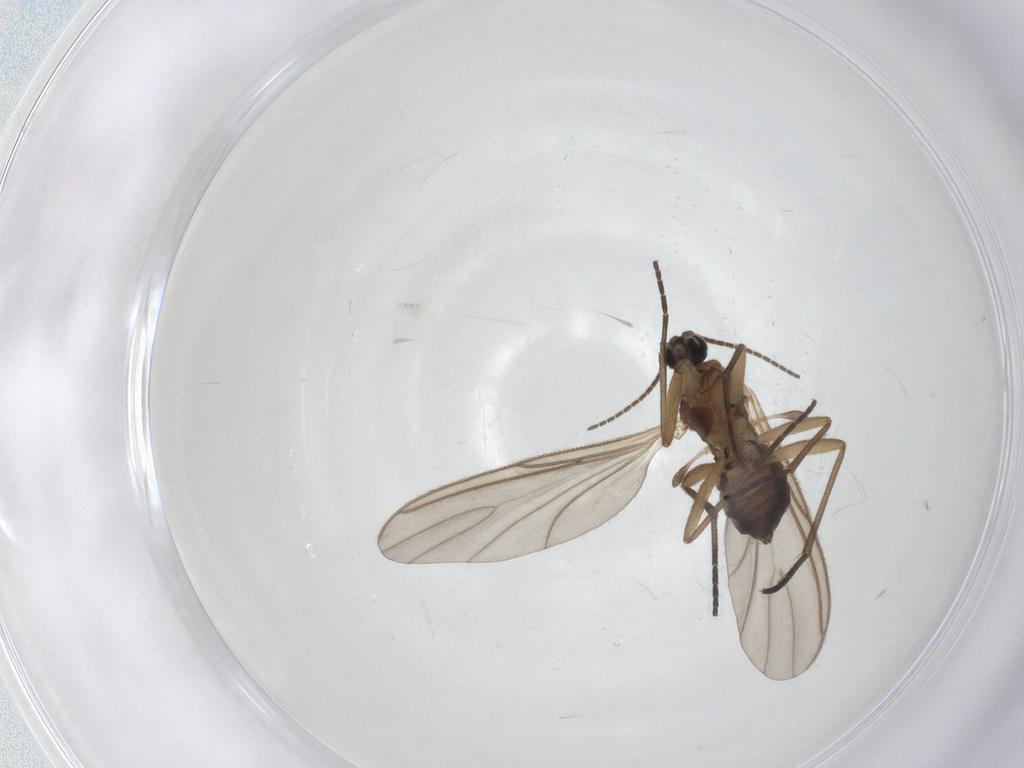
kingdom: Animalia
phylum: Arthropoda
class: Insecta
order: Diptera
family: Sciaridae
